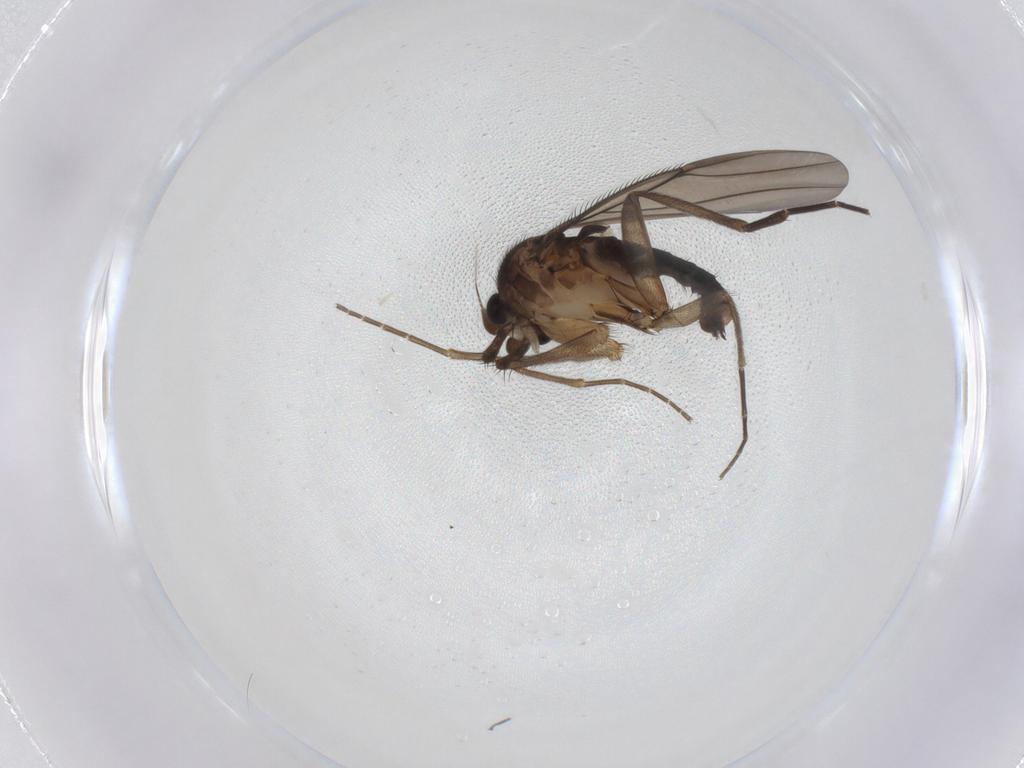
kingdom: Animalia
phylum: Arthropoda
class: Insecta
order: Diptera
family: Phoridae
